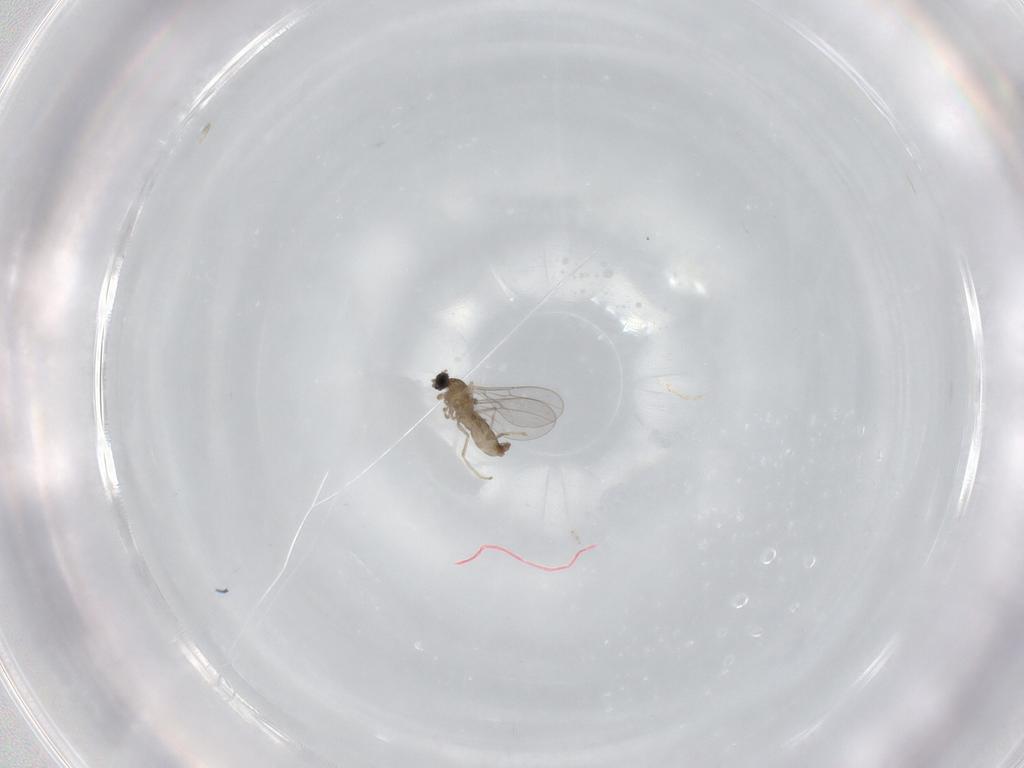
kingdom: Animalia
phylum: Arthropoda
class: Insecta
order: Diptera
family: Cecidomyiidae
